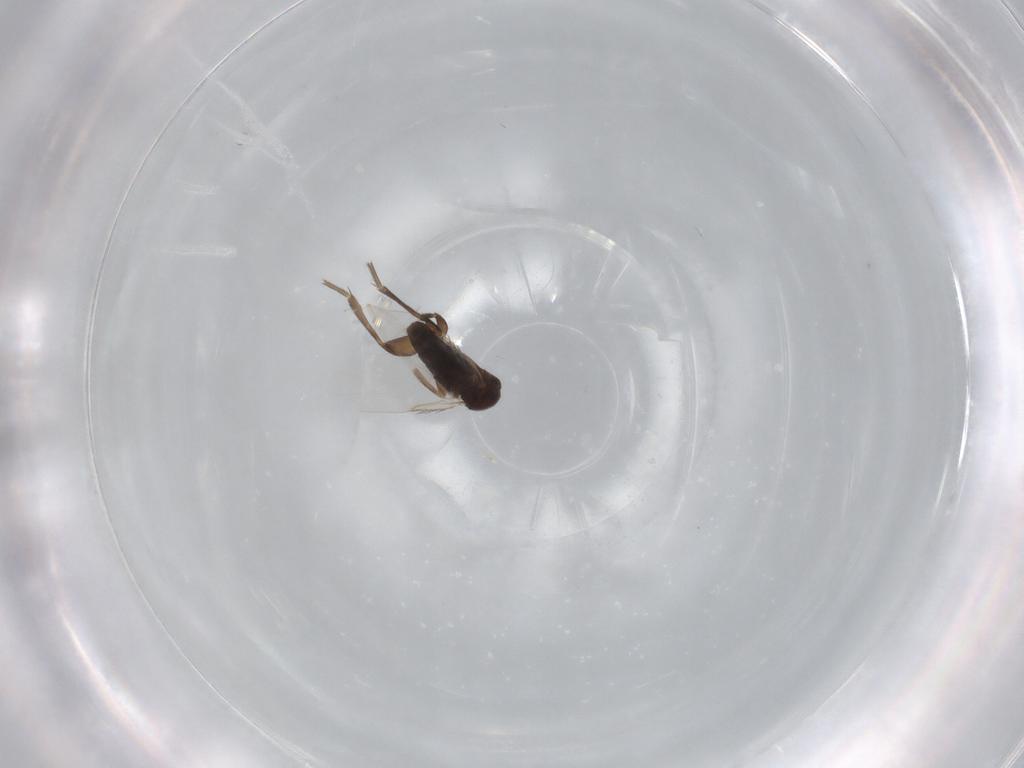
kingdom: Animalia
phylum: Arthropoda
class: Insecta
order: Diptera
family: Phoridae
